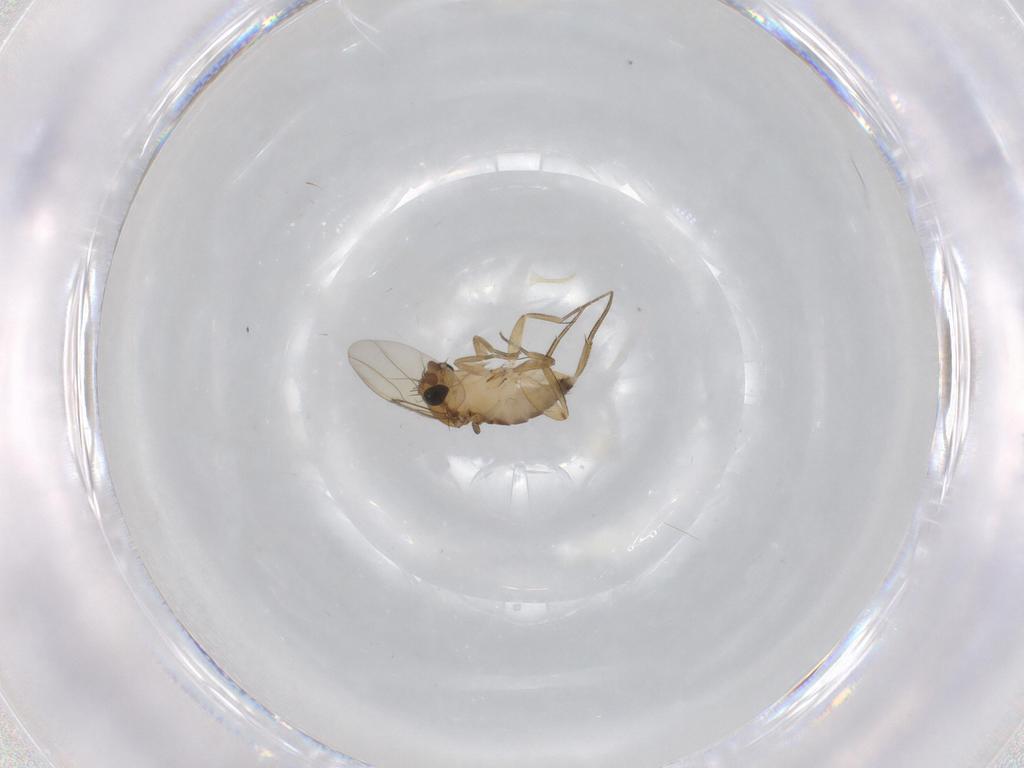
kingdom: Animalia
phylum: Arthropoda
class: Insecta
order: Diptera
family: Phoridae
